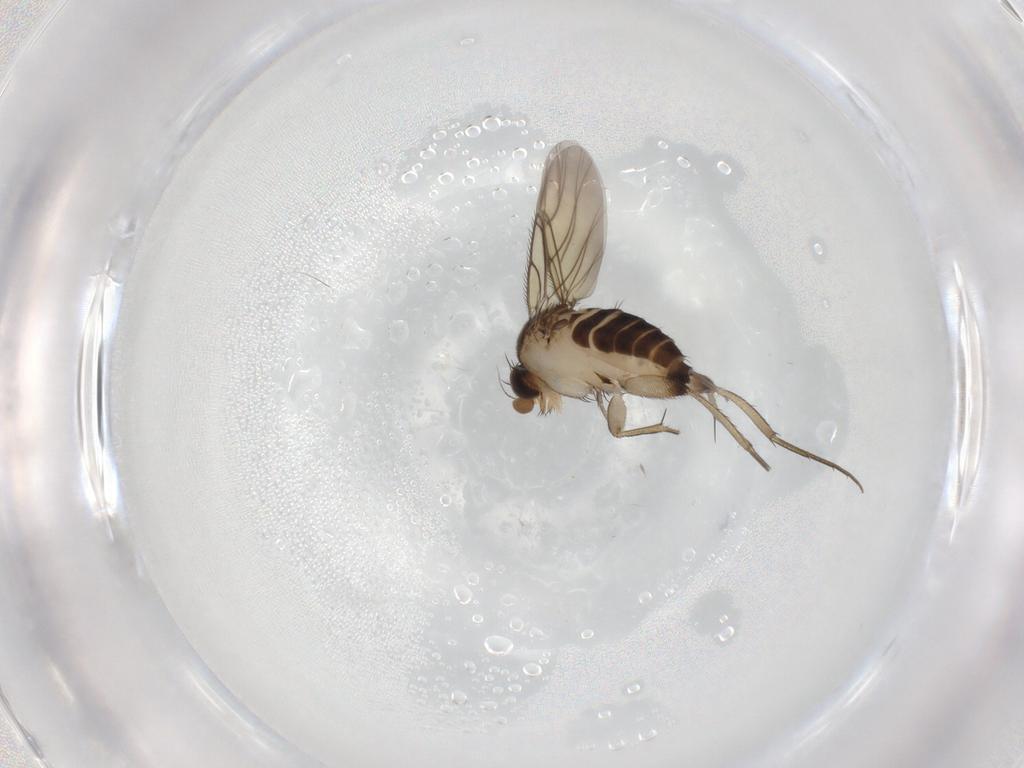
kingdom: Animalia
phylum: Arthropoda
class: Insecta
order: Diptera
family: Phoridae
